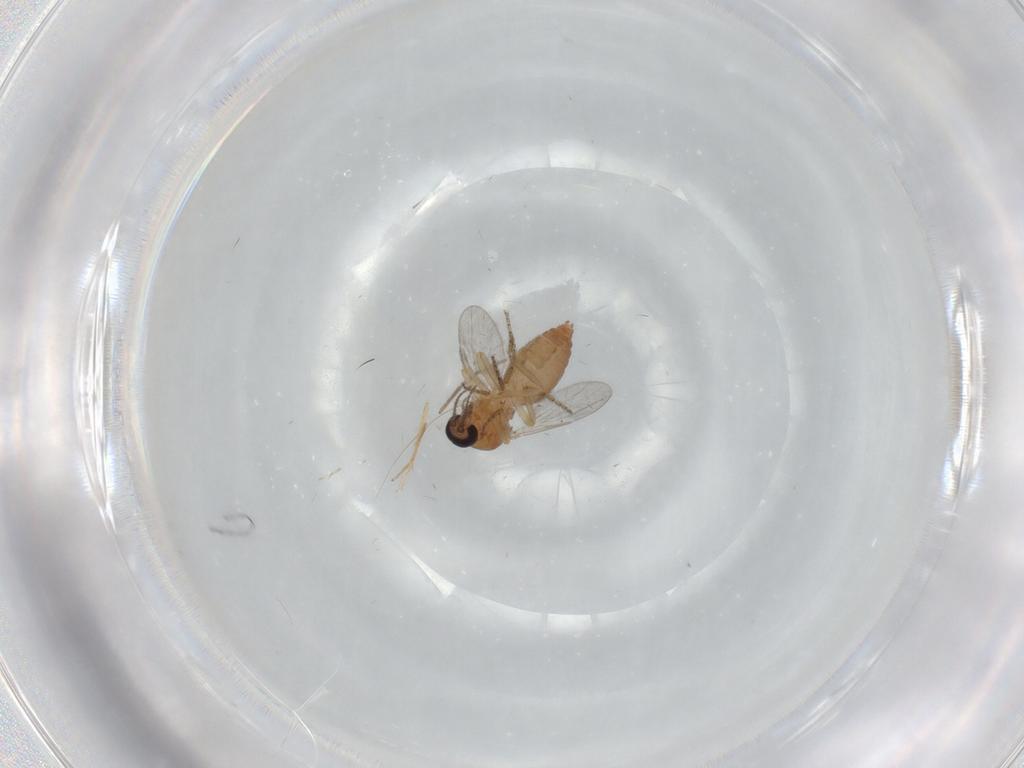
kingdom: Animalia
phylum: Arthropoda
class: Insecta
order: Diptera
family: Ceratopogonidae
